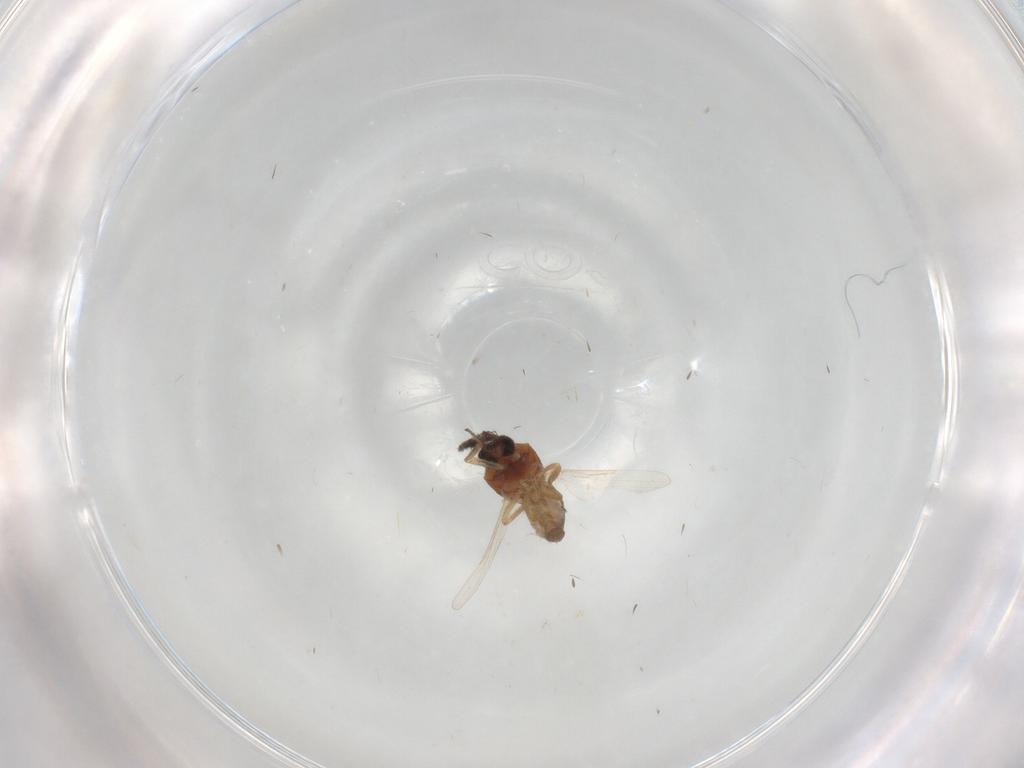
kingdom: Animalia
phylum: Arthropoda
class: Insecta
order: Diptera
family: Ceratopogonidae
